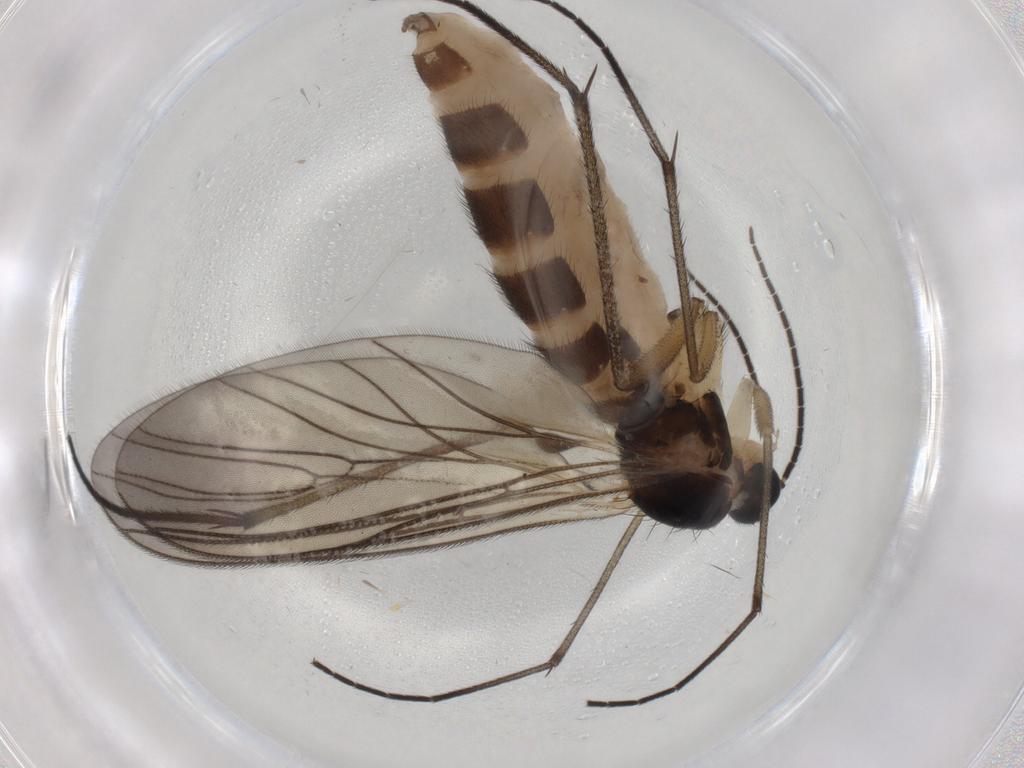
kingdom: Animalia
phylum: Arthropoda
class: Insecta
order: Diptera
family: Sciaridae
